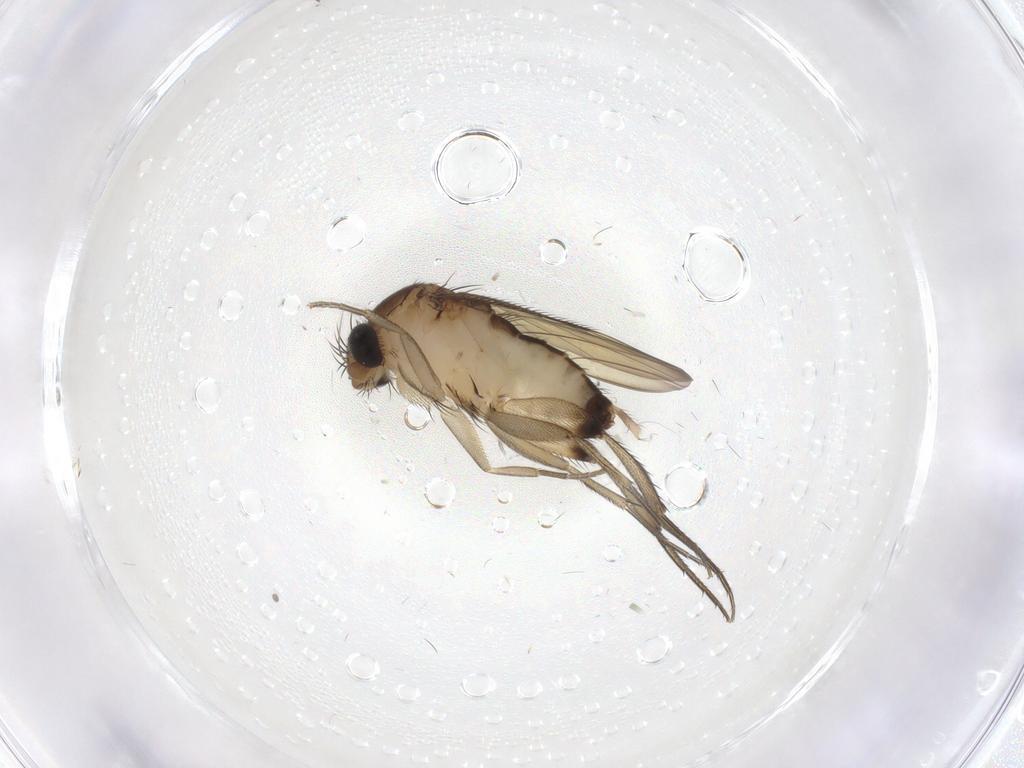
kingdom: Animalia
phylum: Arthropoda
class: Insecta
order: Diptera
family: Phoridae
